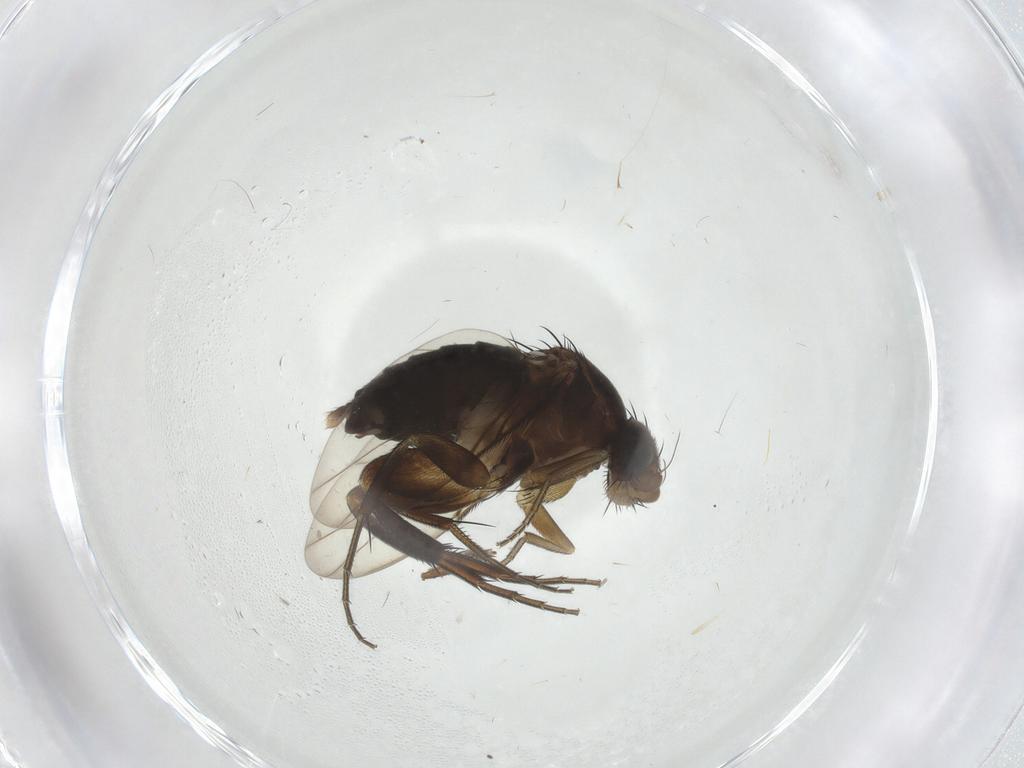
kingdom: Animalia
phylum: Arthropoda
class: Insecta
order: Diptera
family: Phoridae
